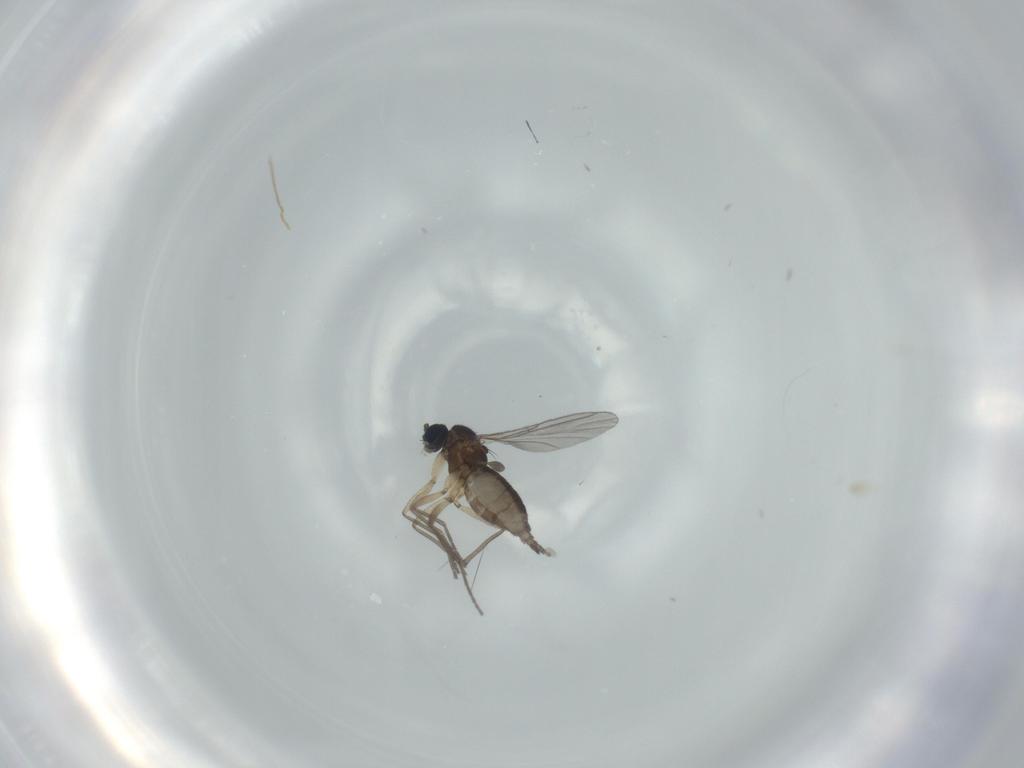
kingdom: Animalia
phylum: Arthropoda
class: Insecta
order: Diptera
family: Sciaridae
